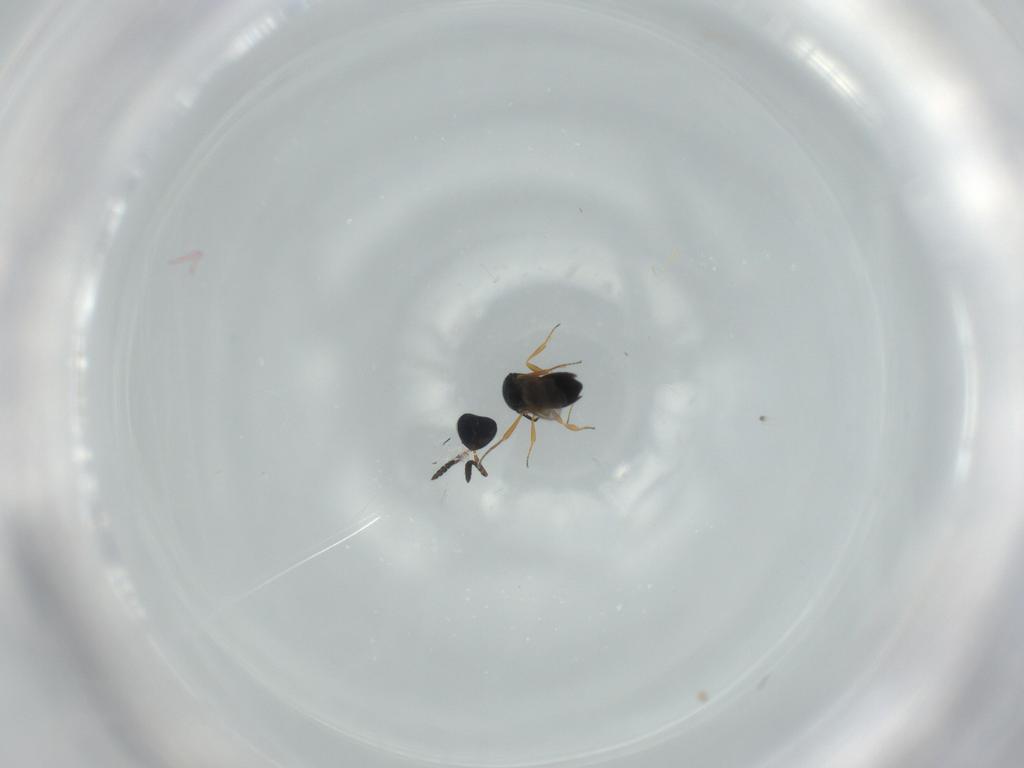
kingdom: Animalia
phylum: Arthropoda
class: Insecta
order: Hymenoptera
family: Scelionidae
